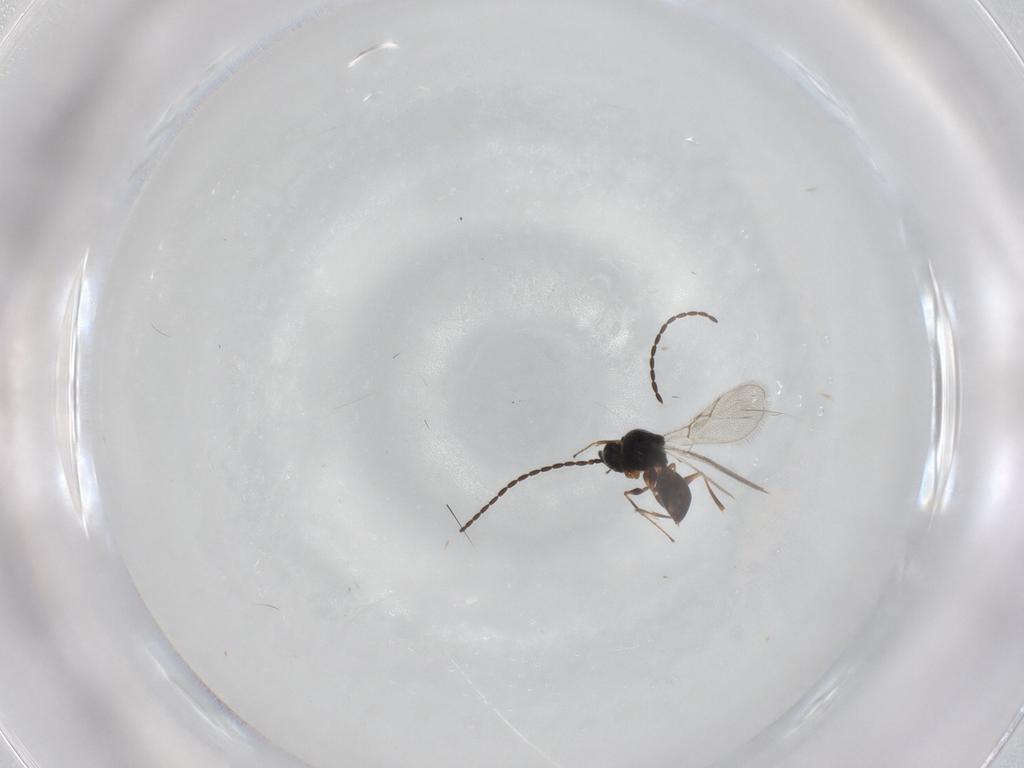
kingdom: Animalia
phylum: Arthropoda
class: Insecta
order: Hymenoptera
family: Figitidae
